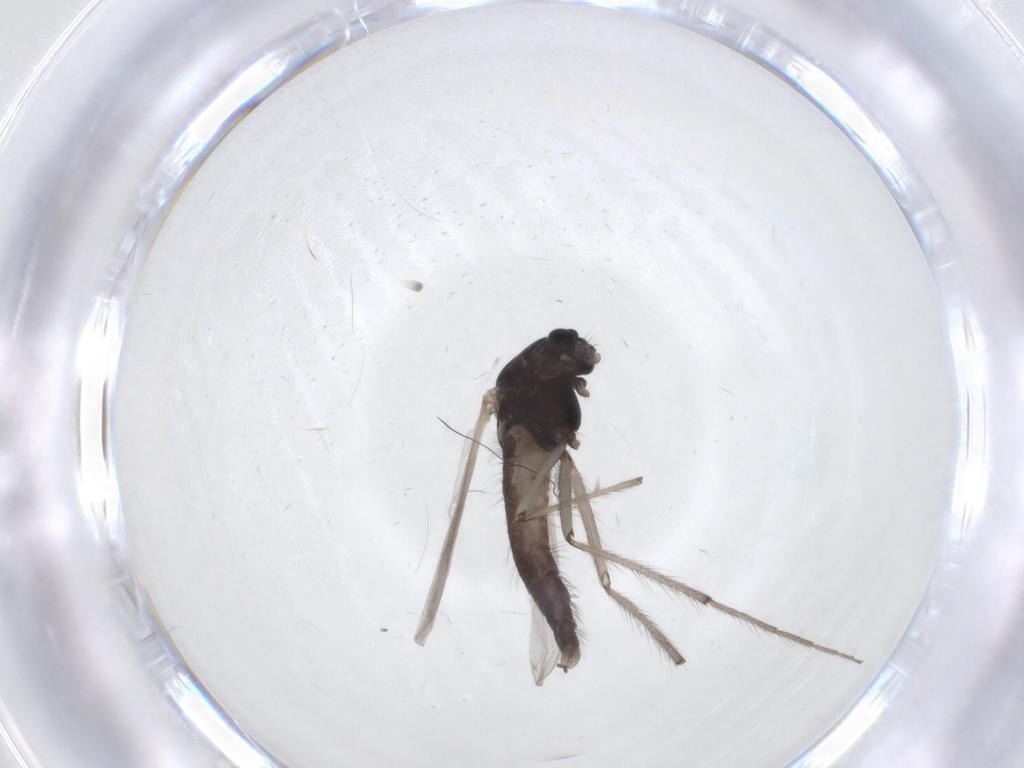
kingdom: Animalia
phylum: Arthropoda
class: Insecta
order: Diptera
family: Chironomidae
